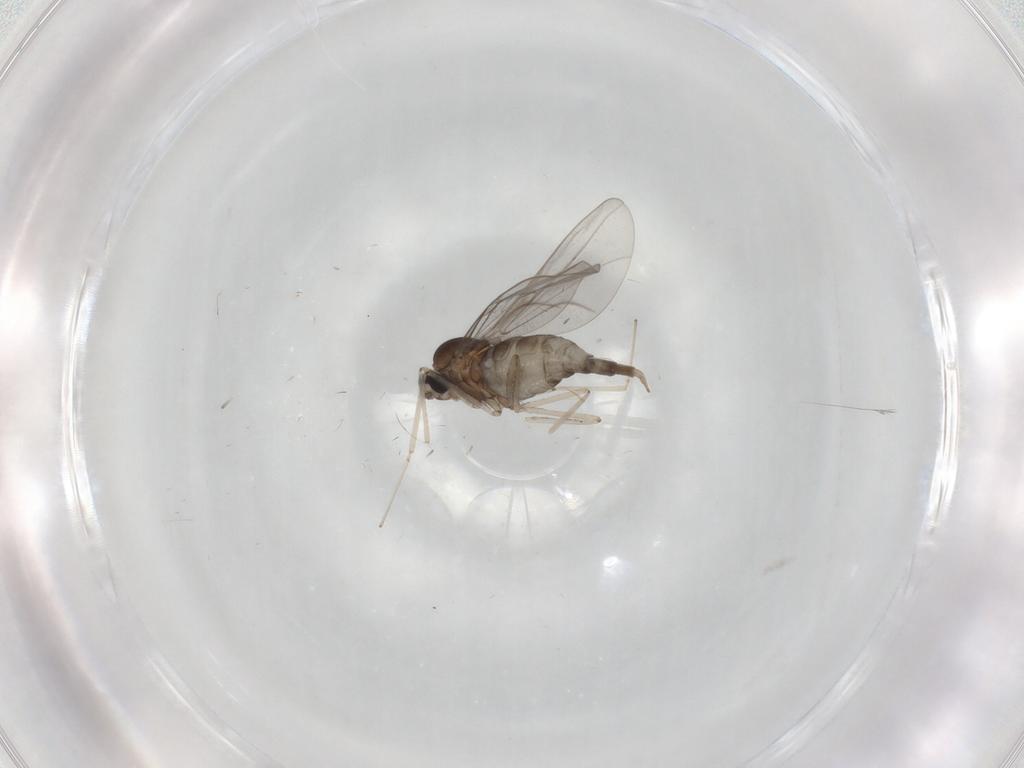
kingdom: Animalia
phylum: Arthropoda
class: Insecta
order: Diptera
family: Cecidomyiidae
